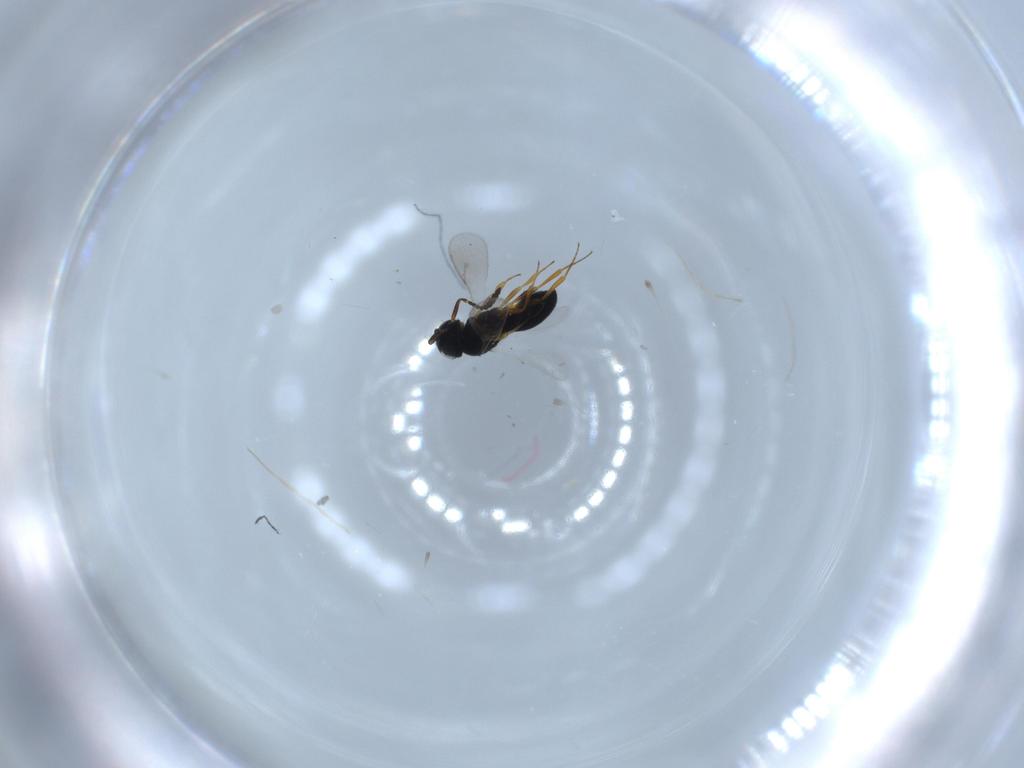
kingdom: Animalia
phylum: Arthropoda
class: Insecta
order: Hymenoptera
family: Scelionidae
